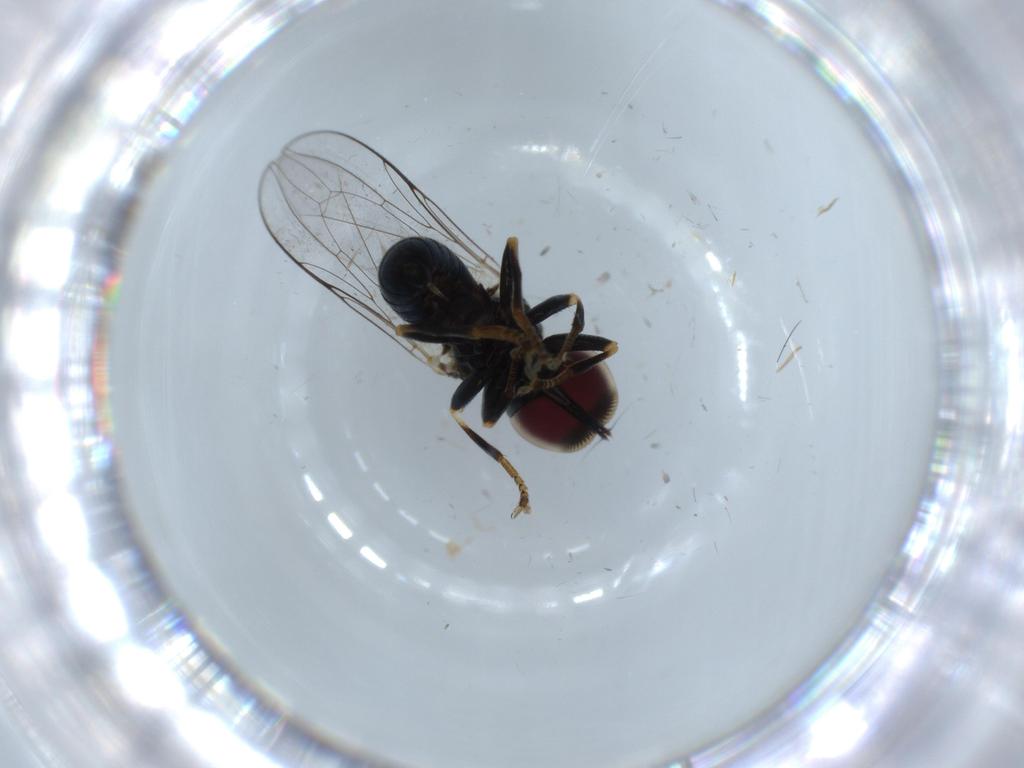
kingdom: Animalia
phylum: Arthropoda
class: Insecta
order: Diptera
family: Pipunculidae
